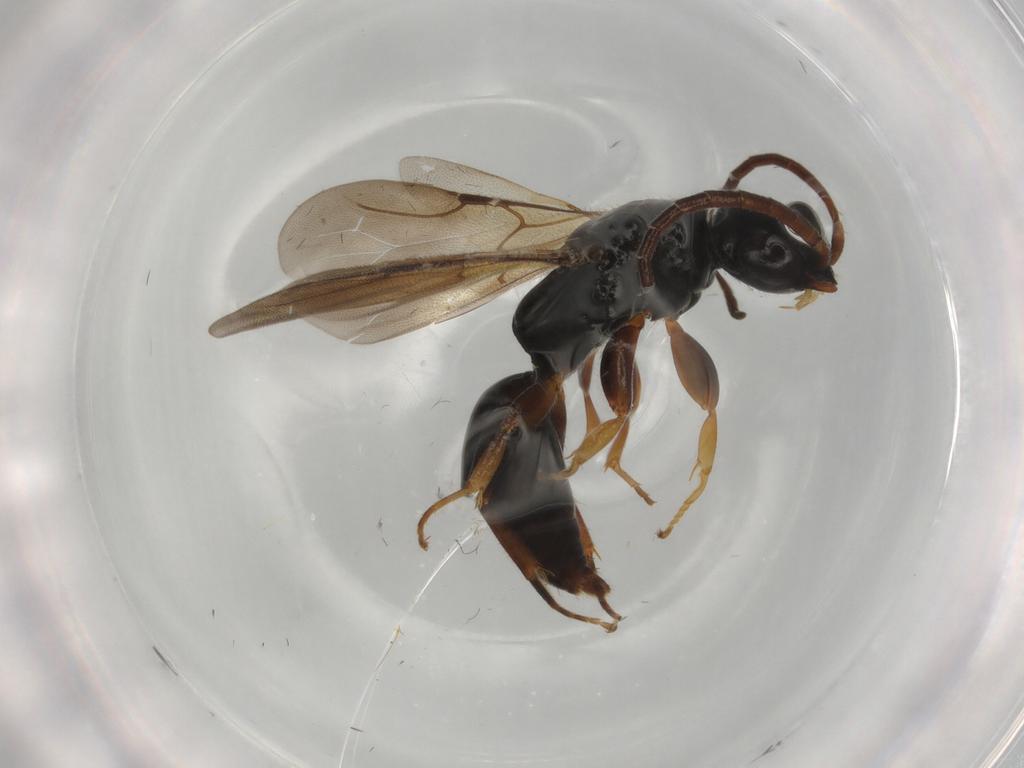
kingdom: Animalia
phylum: Arthropoda
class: Insecta
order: Hymenoptera
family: Bethylidae
